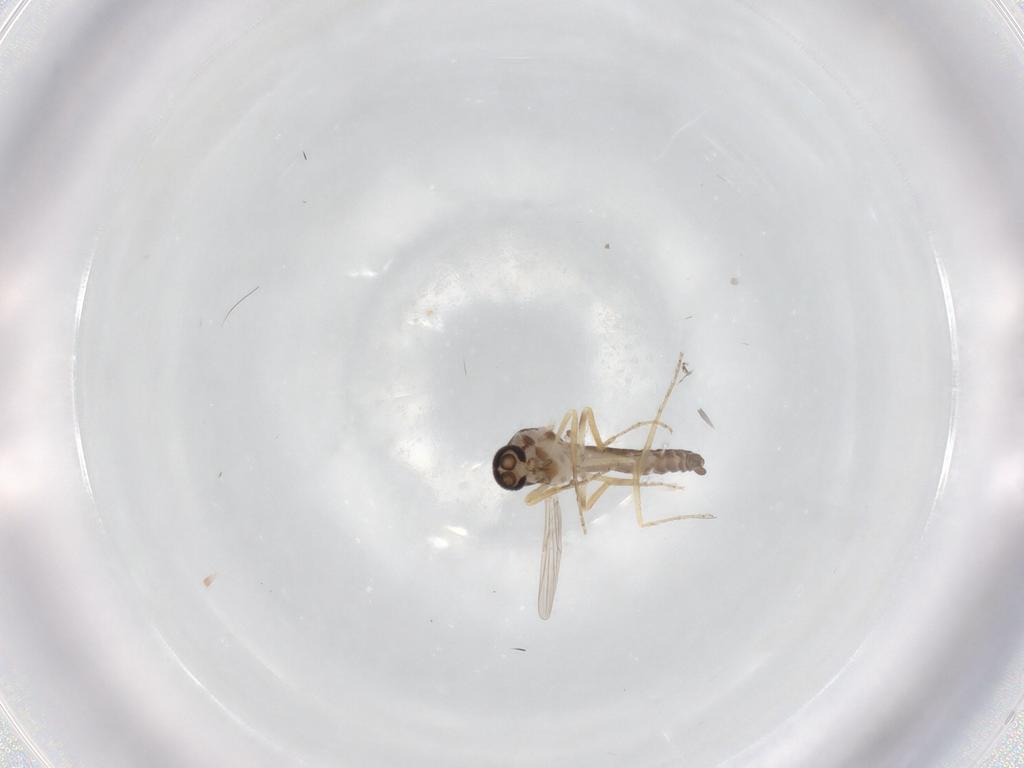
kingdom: Animalia
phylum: Arthropoda
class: Insecta
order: Diptera
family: Ceratopogonidae
